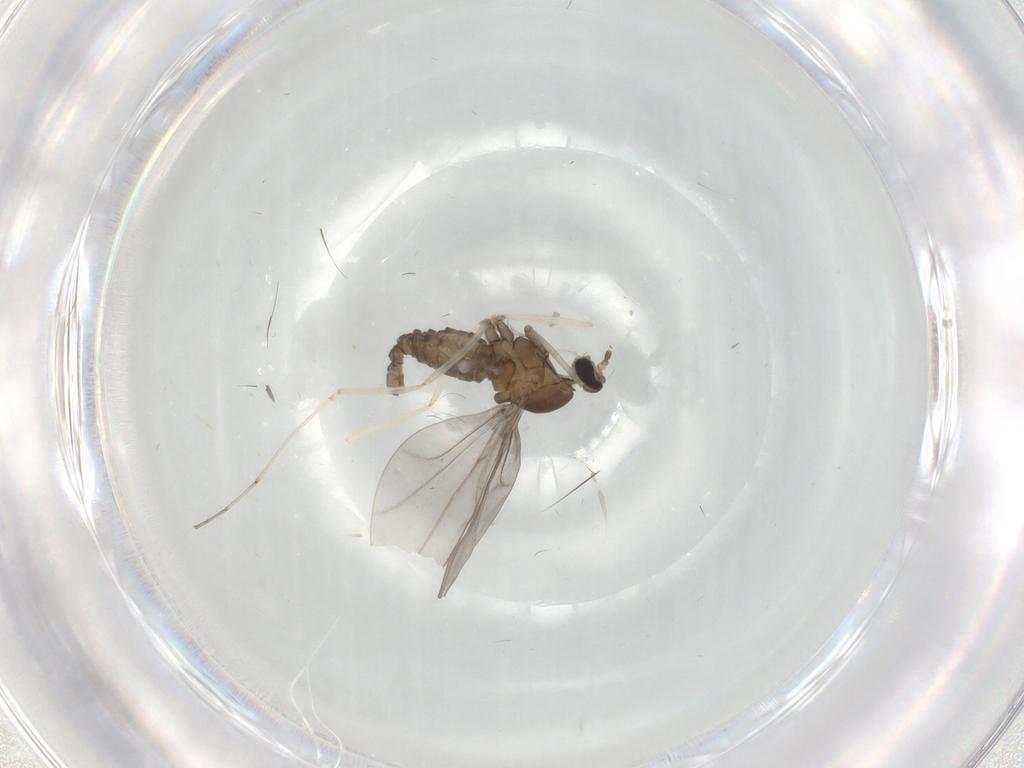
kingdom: Animalia
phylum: Arthropoda
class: Insecta
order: Diptera
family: Cecidomyiidae
